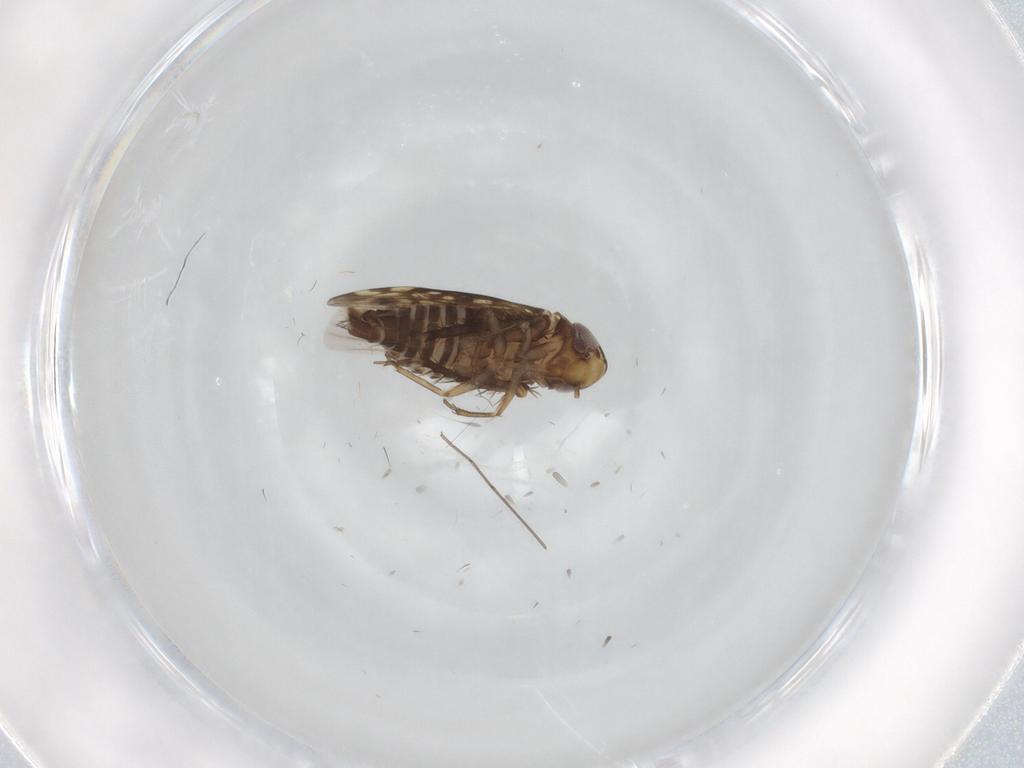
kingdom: Animalia
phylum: Arthropoda
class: Insecta
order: Hemiptera
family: Cicadellidae
